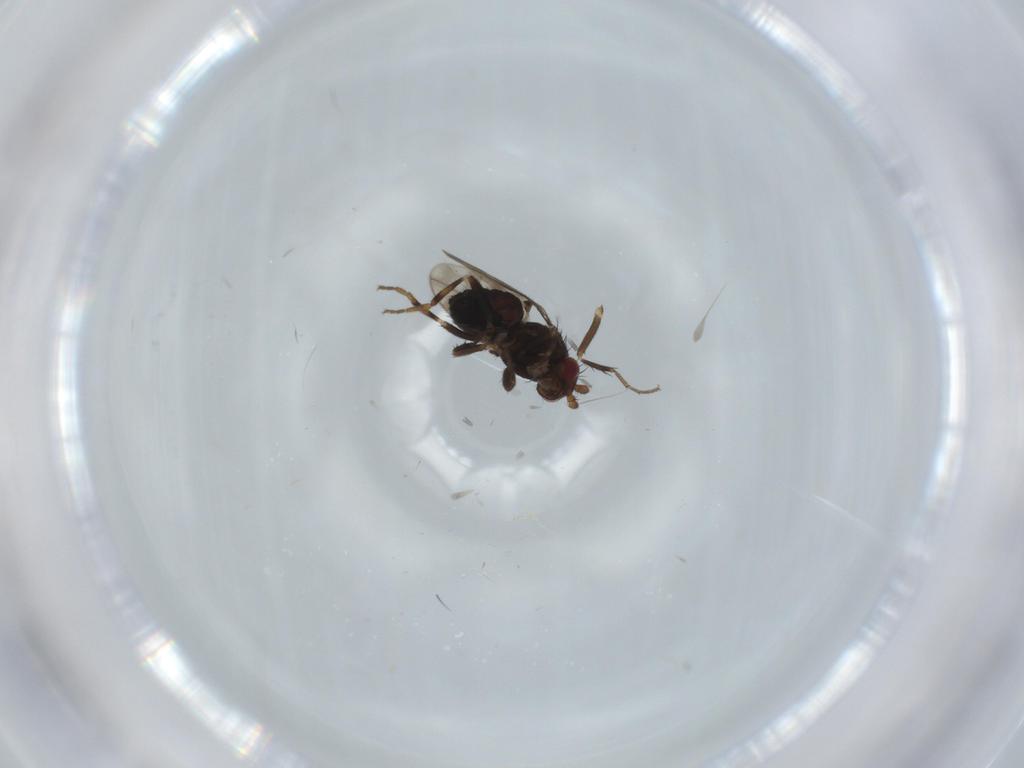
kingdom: Animalia
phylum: Arthropoda
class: Insecta
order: Diptera
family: Sphaeroceridae
